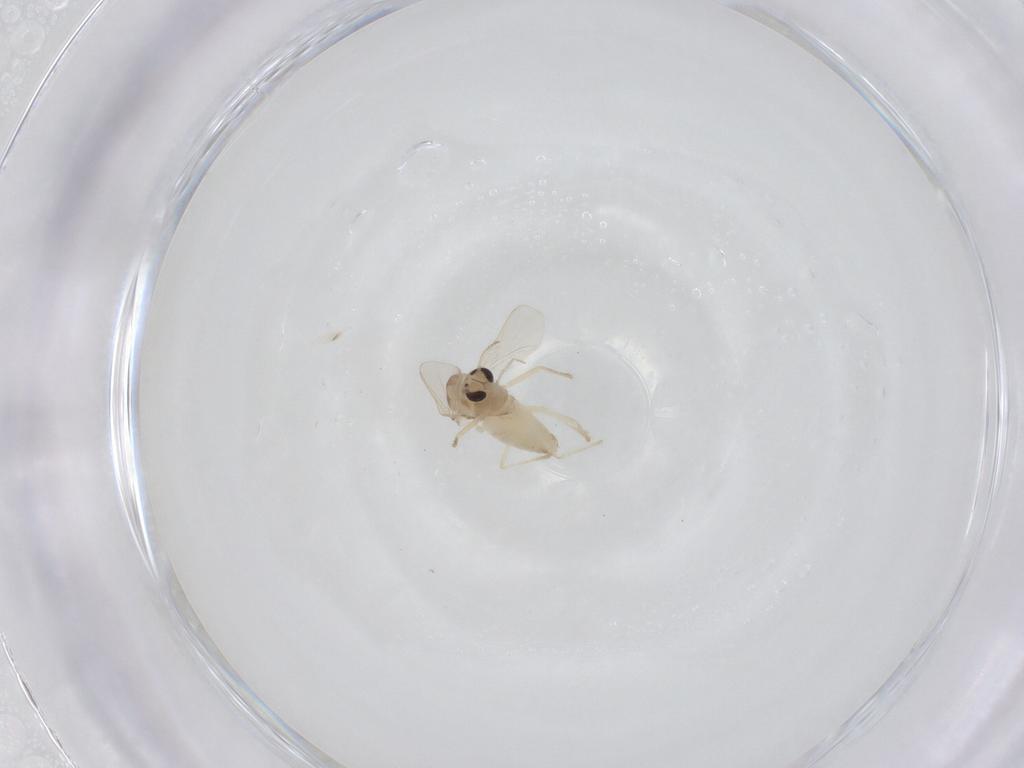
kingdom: Animalia
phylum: Arthropoda
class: Insecta
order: Diptera
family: Chironomidae
